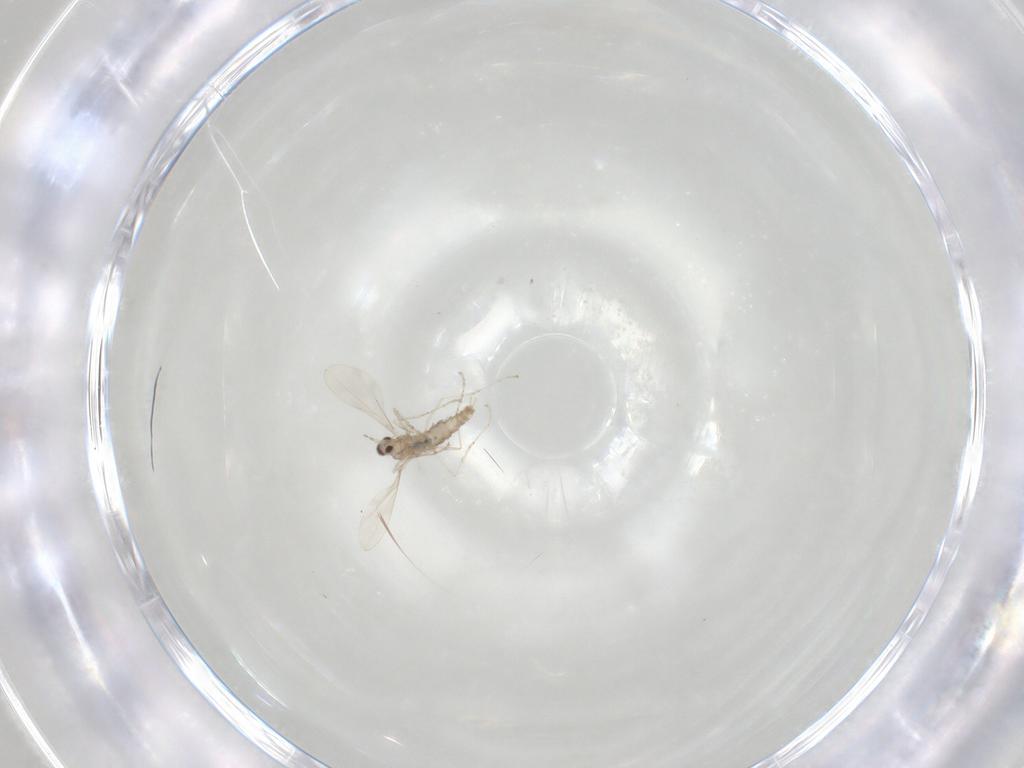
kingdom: Animalia
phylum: Arthropoda
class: Insecta
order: Diptera
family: Cecidomyiidae
